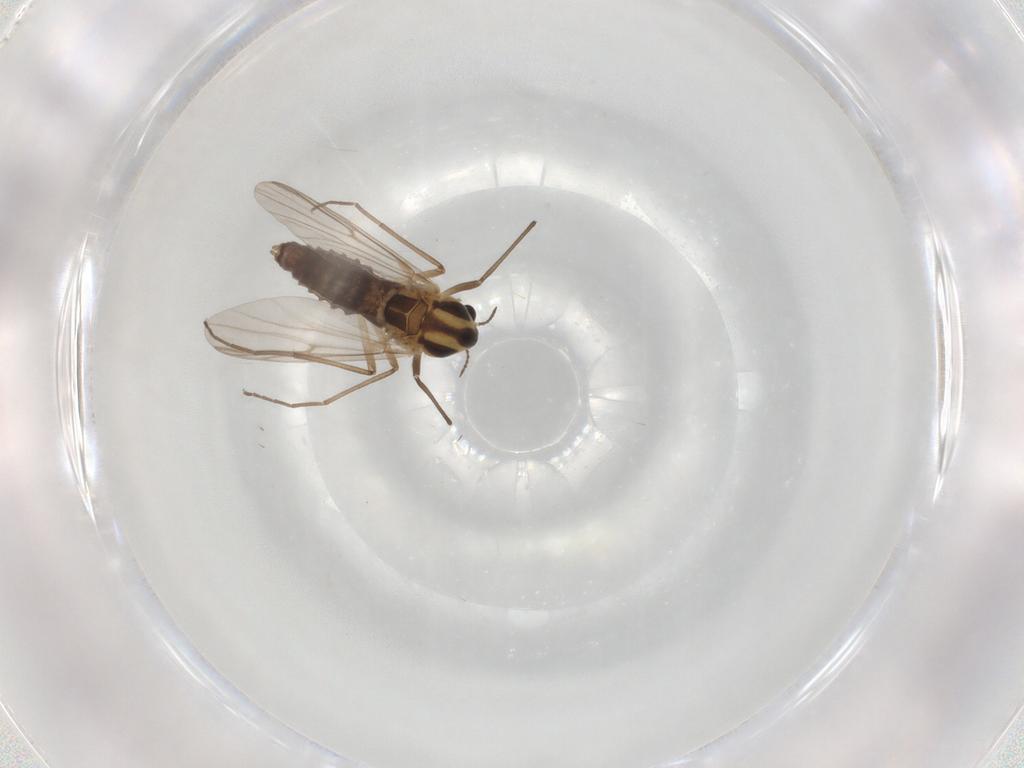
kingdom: Animalia
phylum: Arthropoda
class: Insecta
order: Diptera
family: Chironomidae
